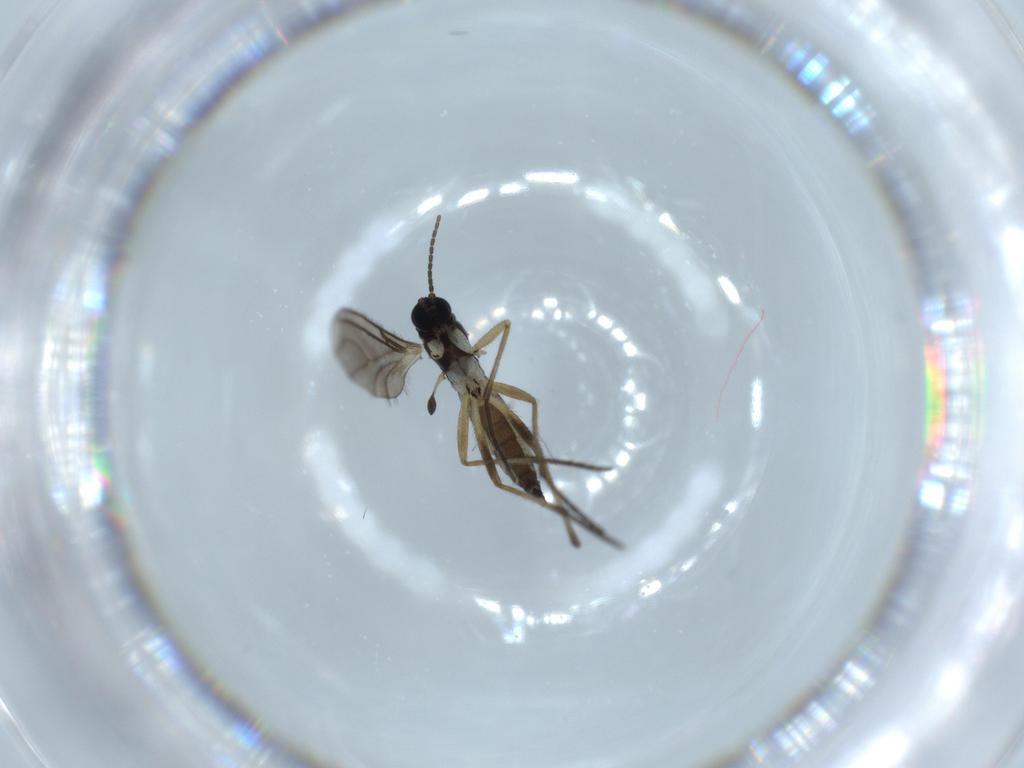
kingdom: Animalia
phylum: Arthropoda
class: Insecta
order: Diptera
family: Sciaridae
